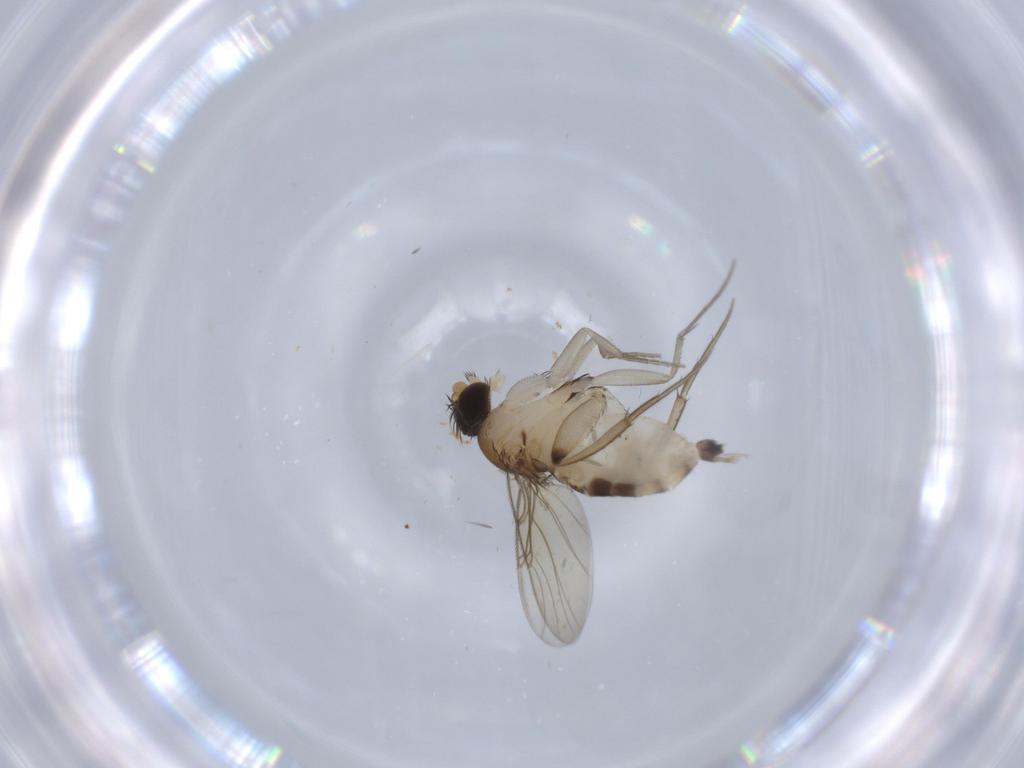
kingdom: Animalia
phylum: Arthropoda
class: Insecta
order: Diptera
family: Phoridae
